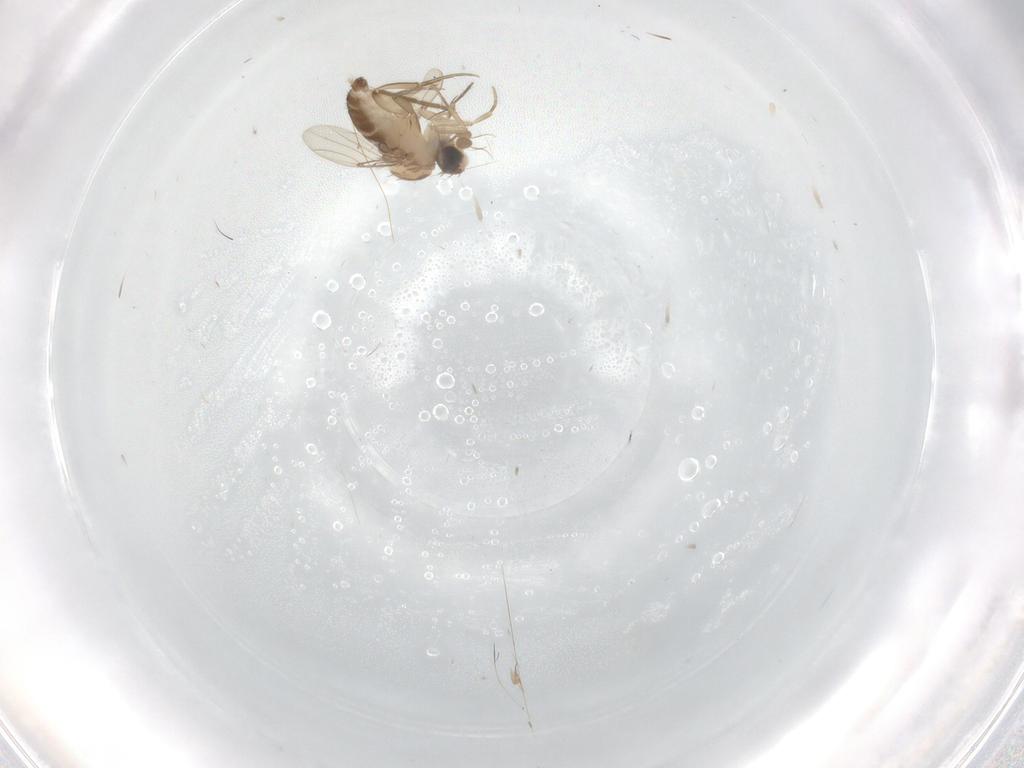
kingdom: Animalia
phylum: Arthropoda
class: Insecta
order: Diptera
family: Phoridae
